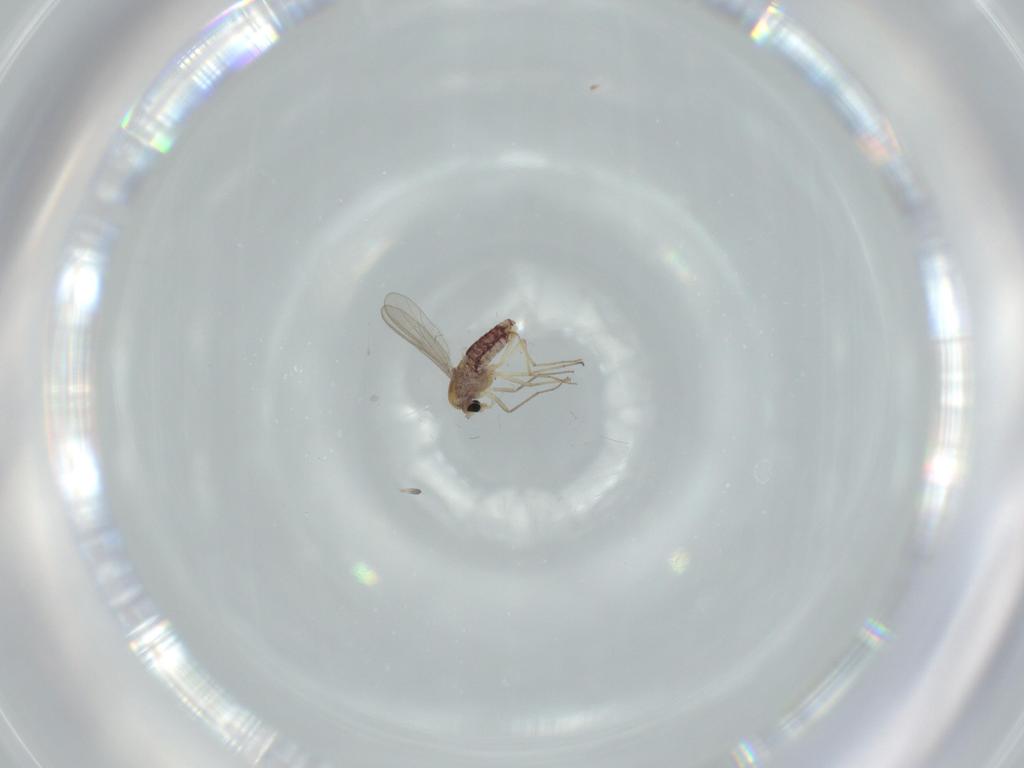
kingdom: Animalia
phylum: Arthropoda
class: Insecta
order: Diptera
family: Chironomidae
